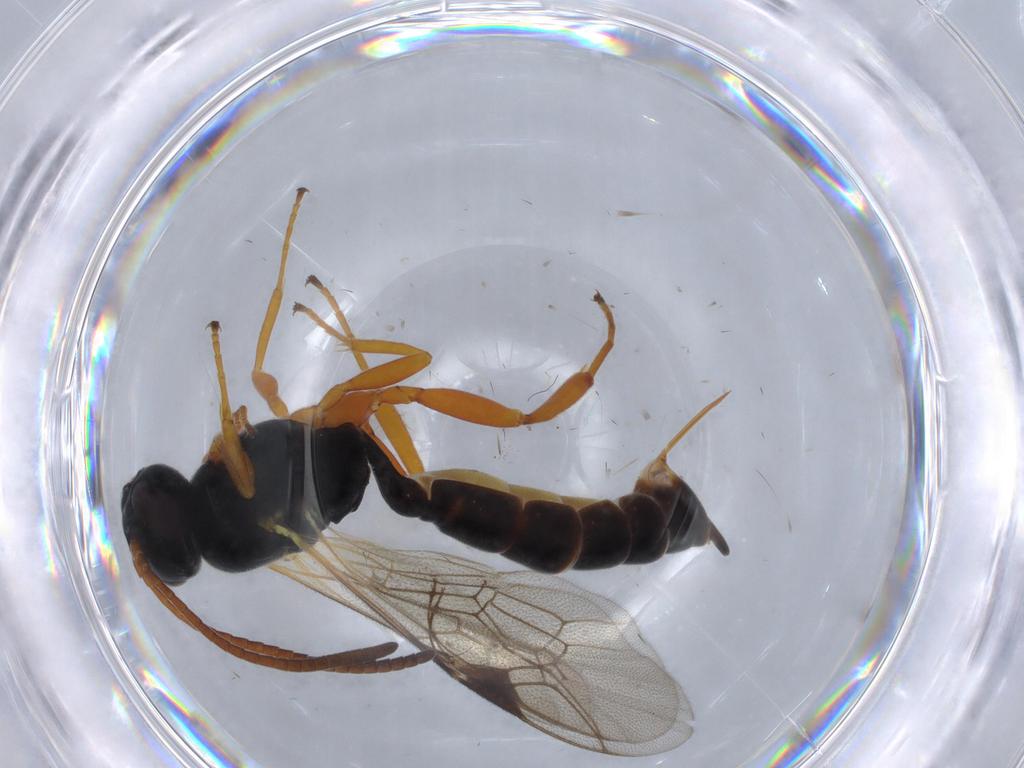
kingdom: Animalia
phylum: Arthropoda
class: Insecta
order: Hymenoptera
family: Ichneumonidae
